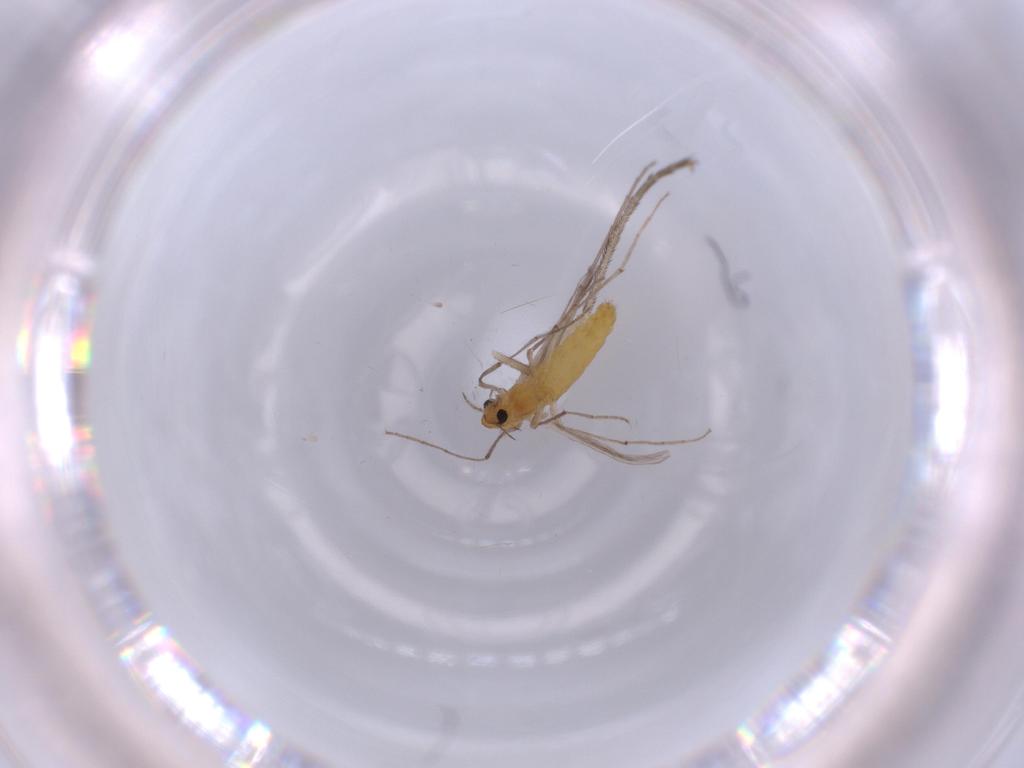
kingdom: Animalia
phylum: Arthropoda
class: Insecta
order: Diptera
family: Chironomidae
